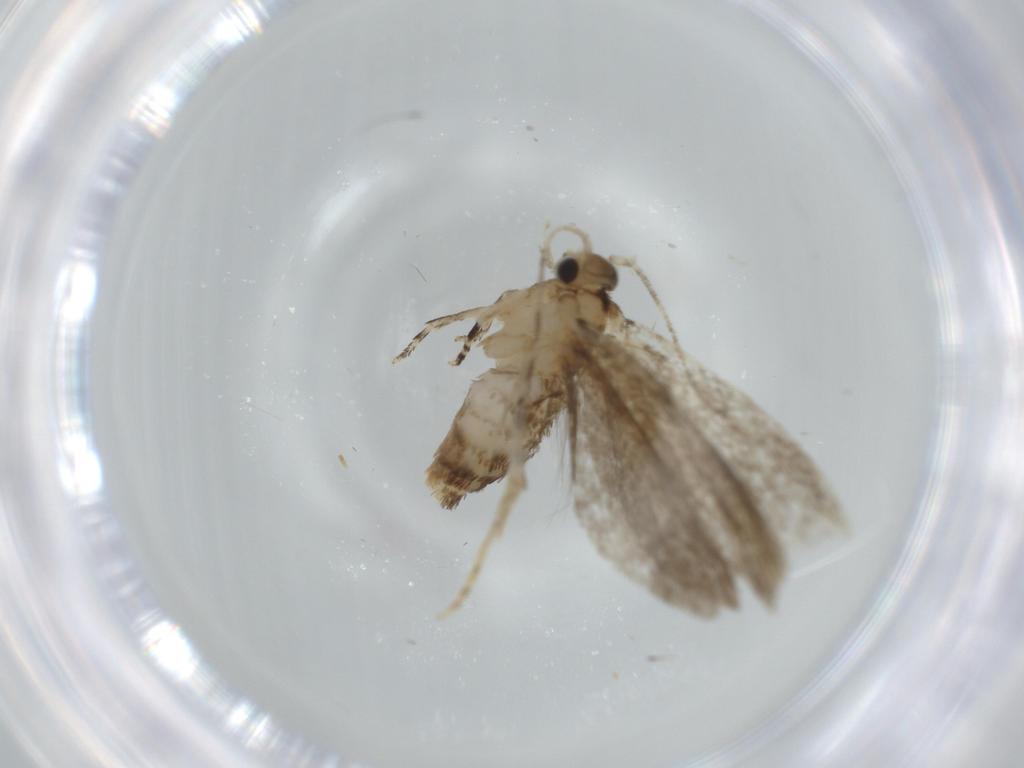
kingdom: Animalia
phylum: Arthropoda
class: Insecta
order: Lepidoptera
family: Tineidae
